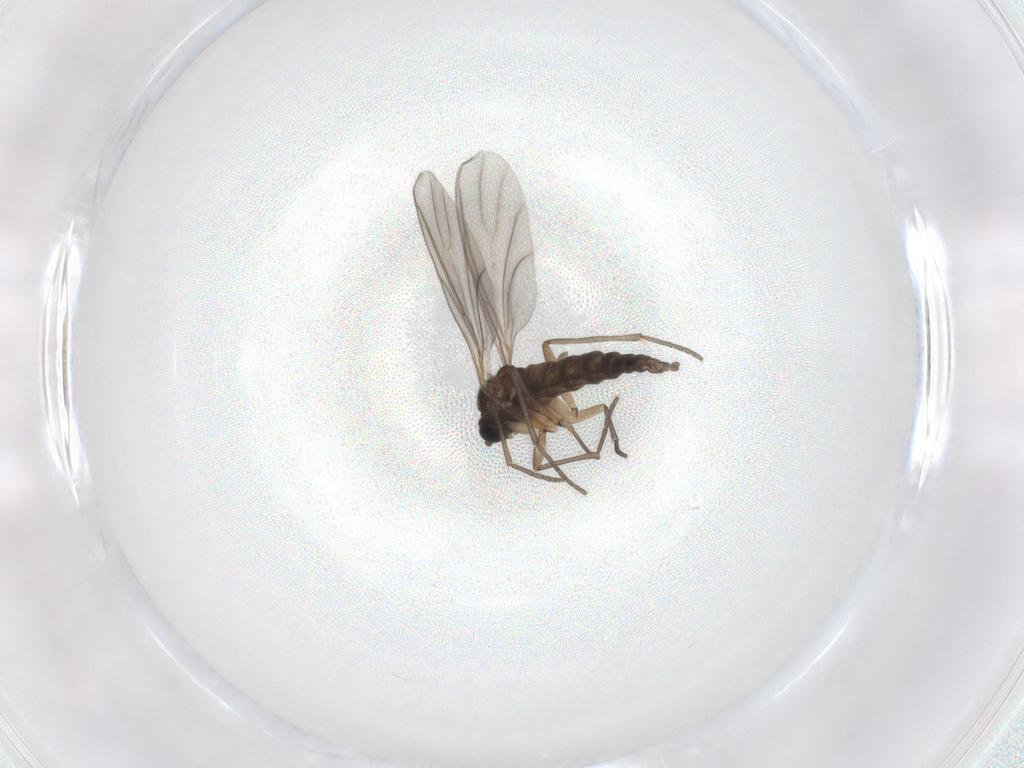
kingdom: Animalia
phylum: Arthropoda
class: Insecta
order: Diptera
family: Sciaridae
